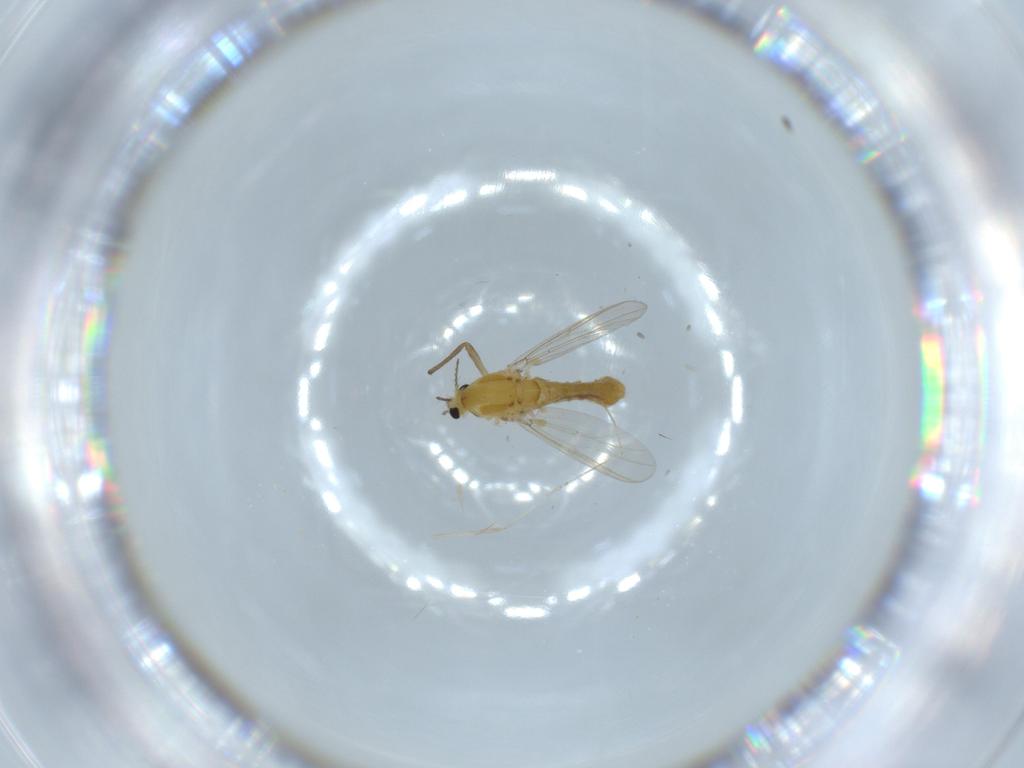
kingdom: Animalia
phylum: Arthropoda
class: Insecta
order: Diptera
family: Chironomidae
